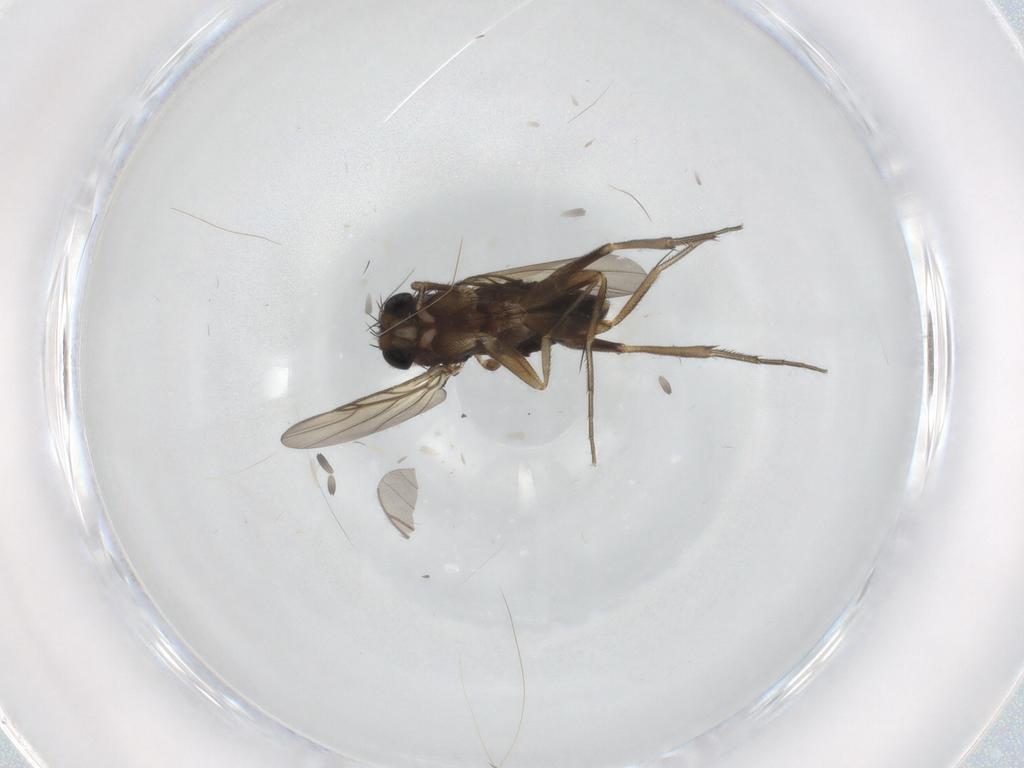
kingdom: Animalia
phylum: Arthropoda
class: Insecta
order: Diptera
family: Phoridae
